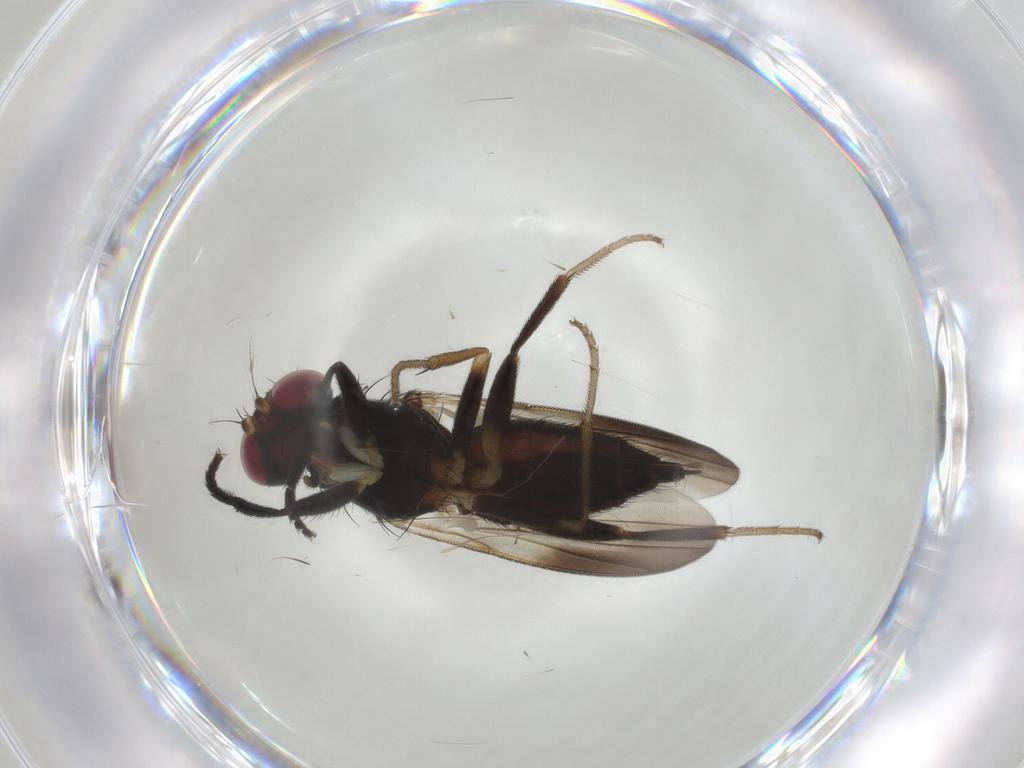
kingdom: Animalia
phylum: Arthropoda
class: Insecta
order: Diptera
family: Clusiidae
